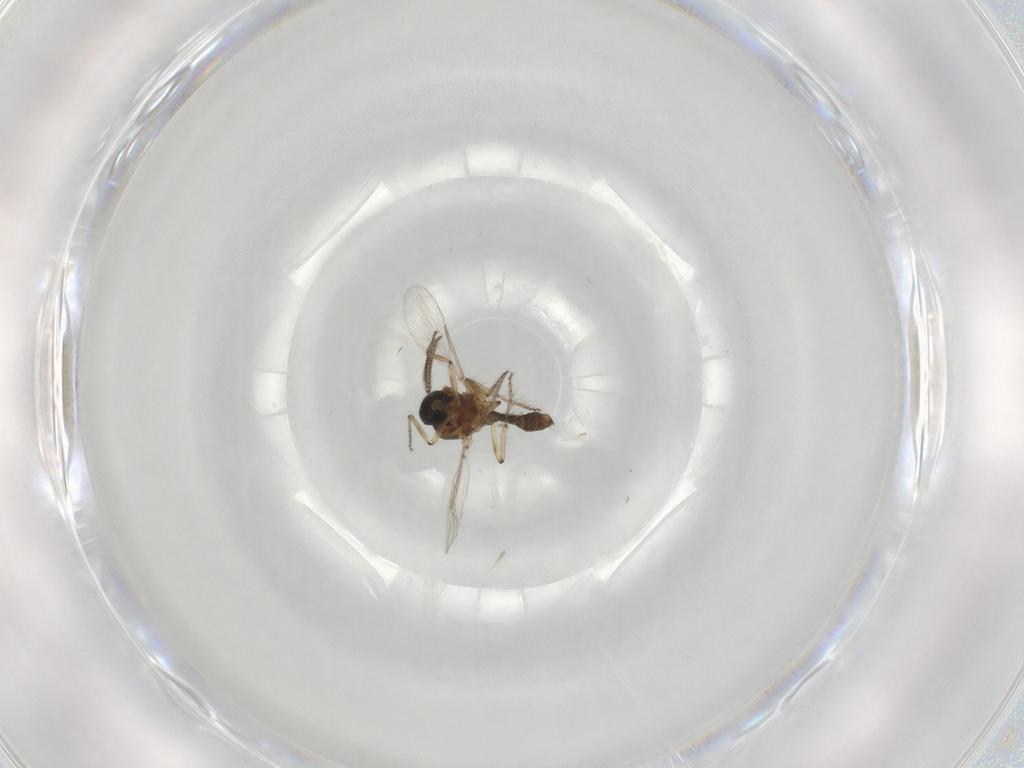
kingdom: Animalia
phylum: Arthropoda
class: Insecta
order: Diptera
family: Ceratopogonidae
